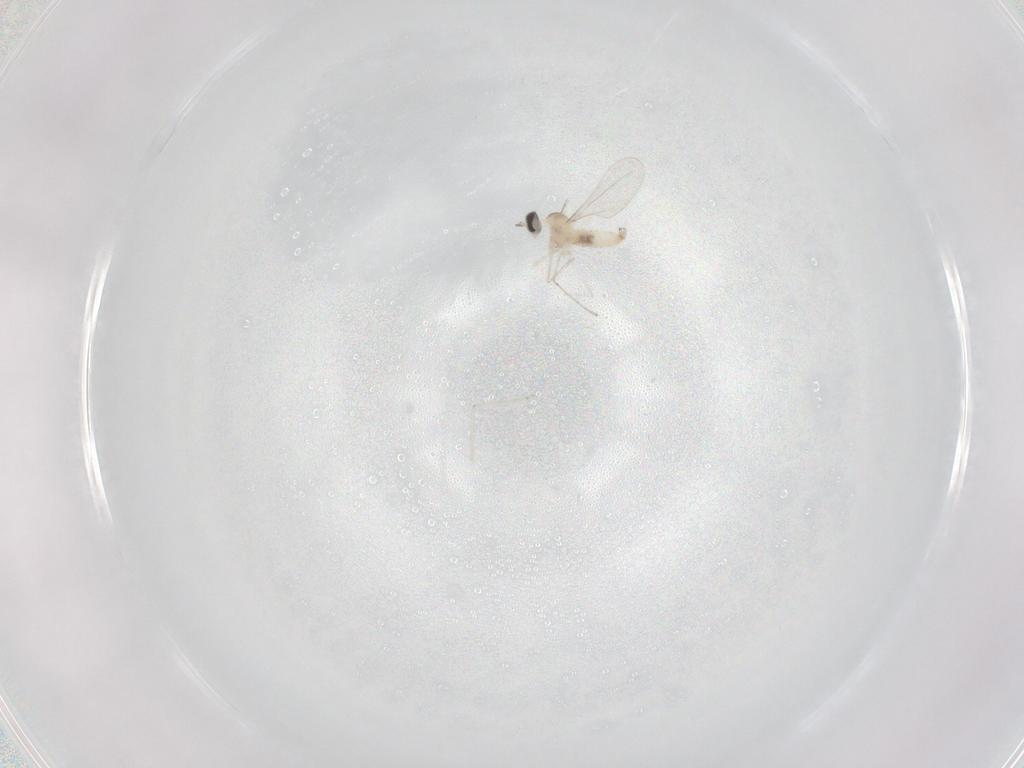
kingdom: Animalia
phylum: Arthropoda
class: Insecta
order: Diptera
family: Cecidomyiidae
